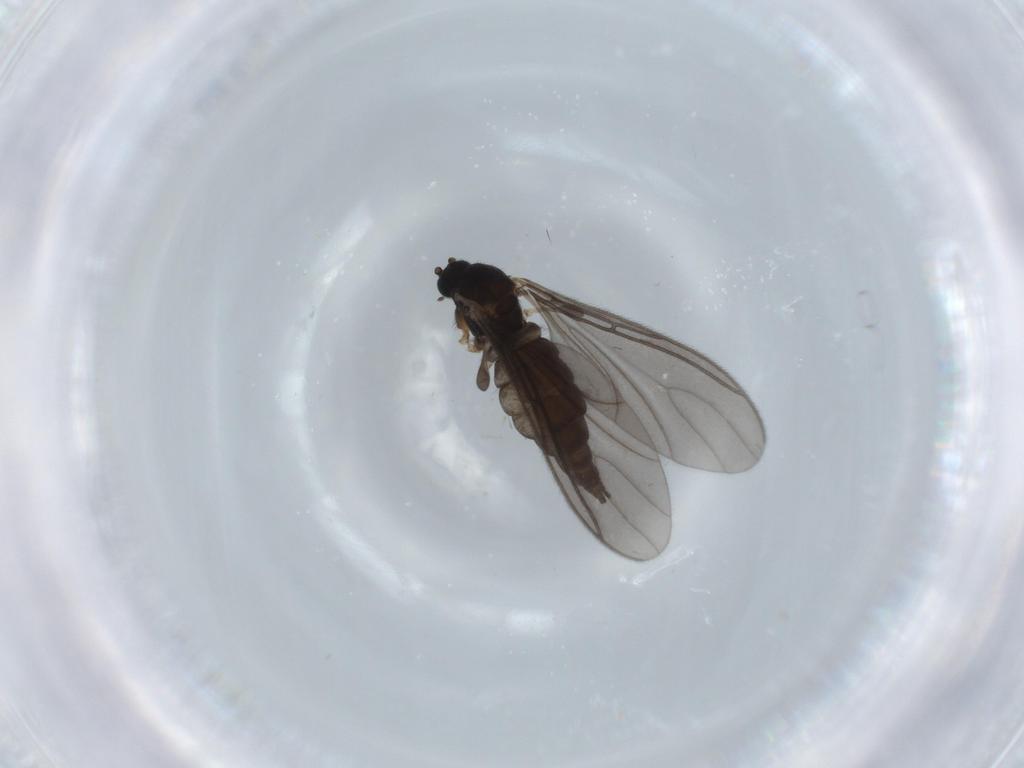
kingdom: Animalia
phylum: Arthropoda
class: Insecta
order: Diptera
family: Sciaridae
